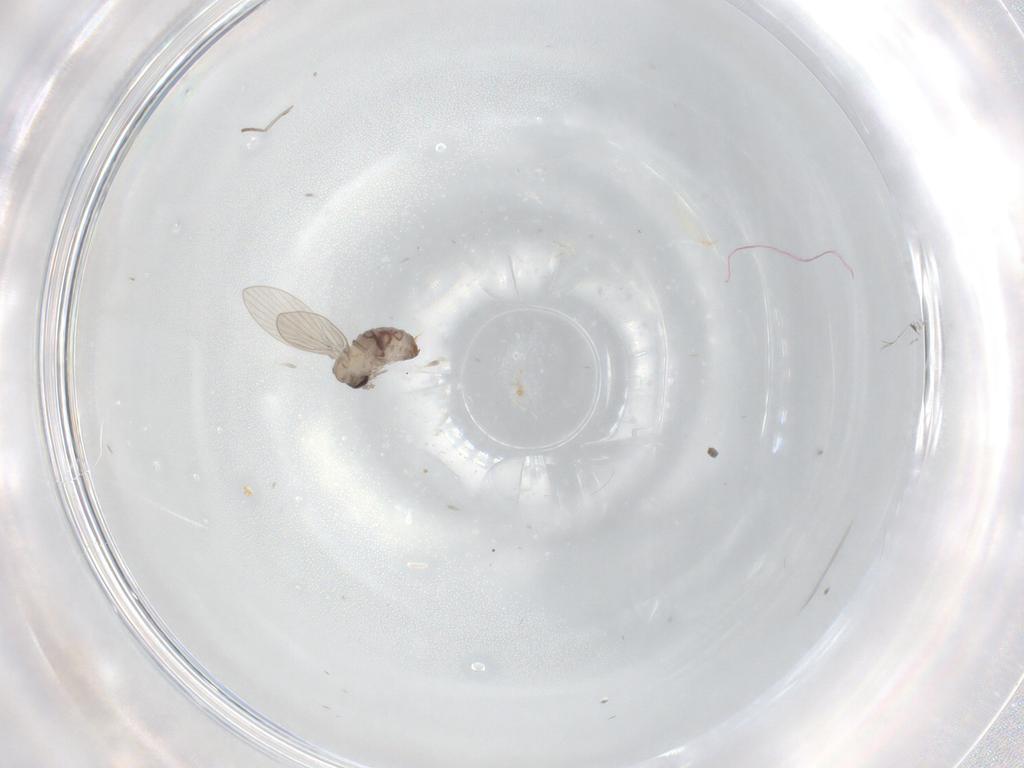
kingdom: Animalia
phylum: Arthropoda
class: Insecta
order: Diptera
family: Psychodidae
